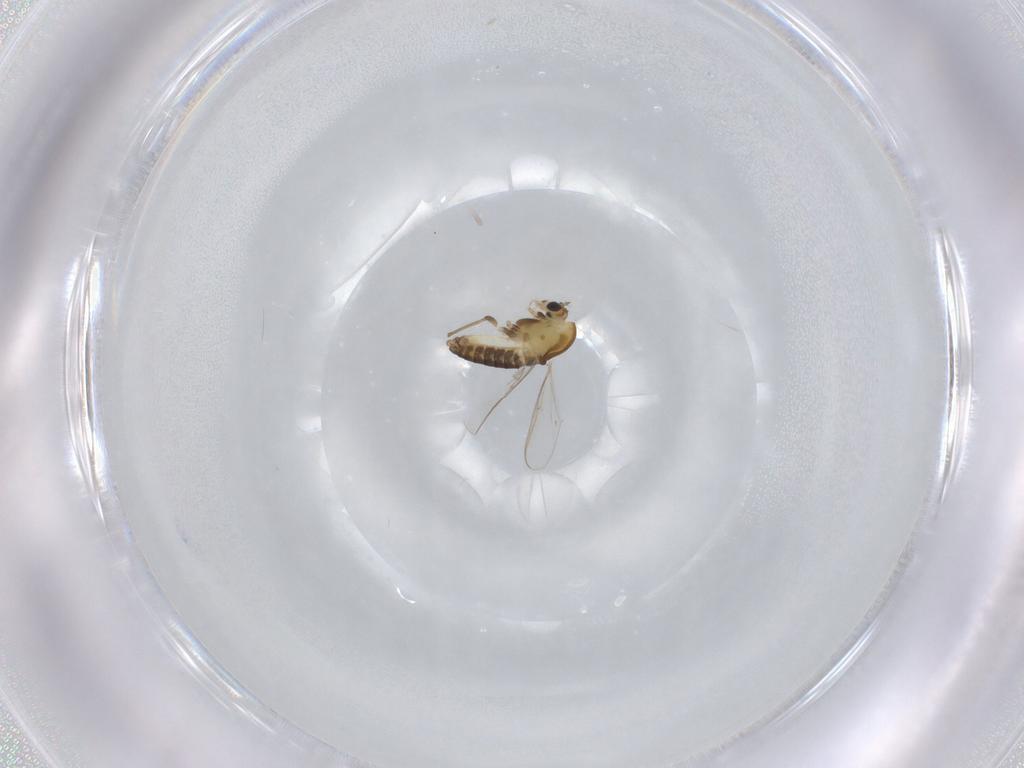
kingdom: Animalia
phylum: Arthropoda
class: Insecta
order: Diptera
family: Chironomidae
